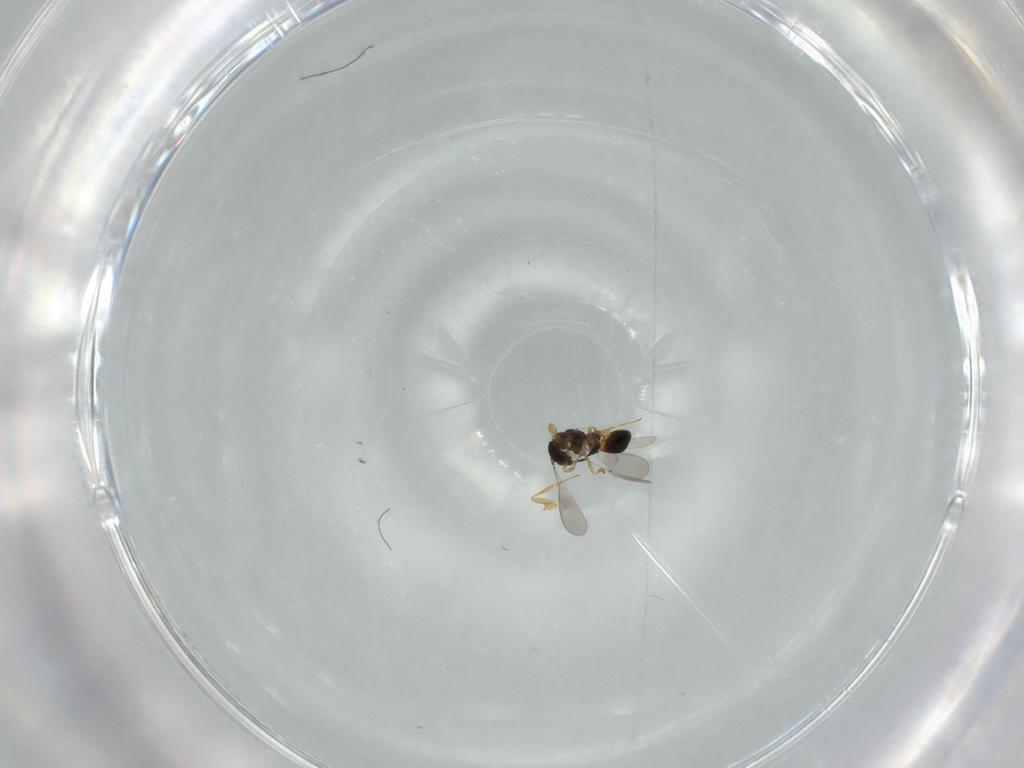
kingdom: Animalia
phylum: Arthropoda
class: Insecta
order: Hymenoptera
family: Scelionidae
